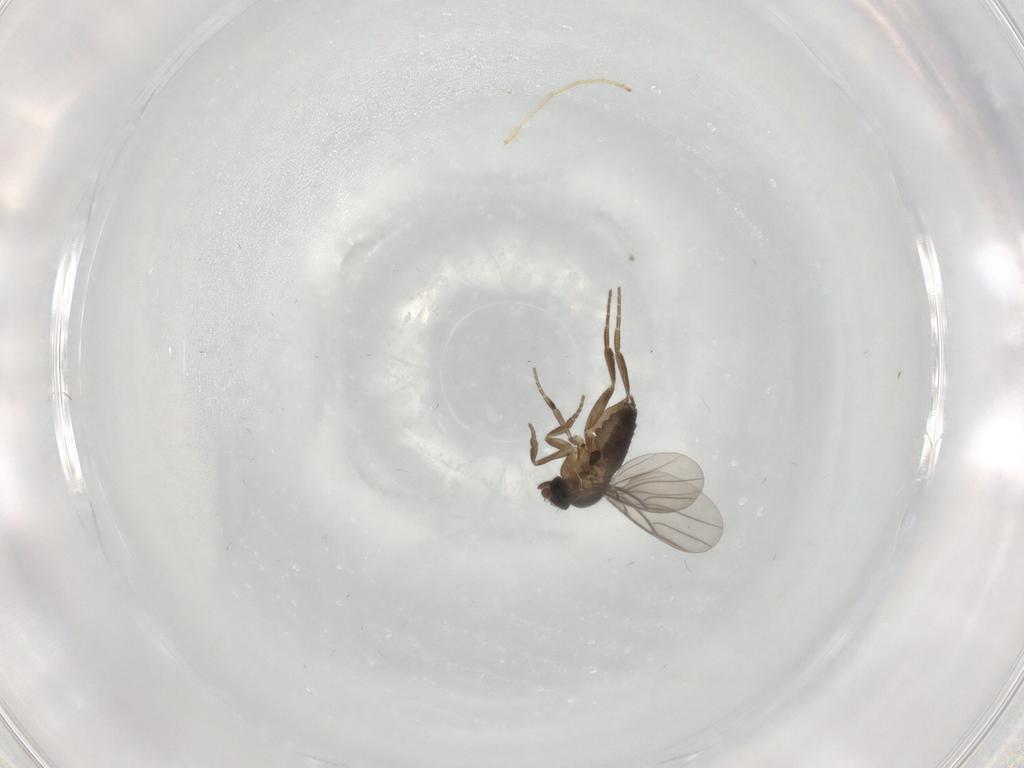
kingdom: Animalia
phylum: Arthropoda
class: Insecta
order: Diptera
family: Phoridae
